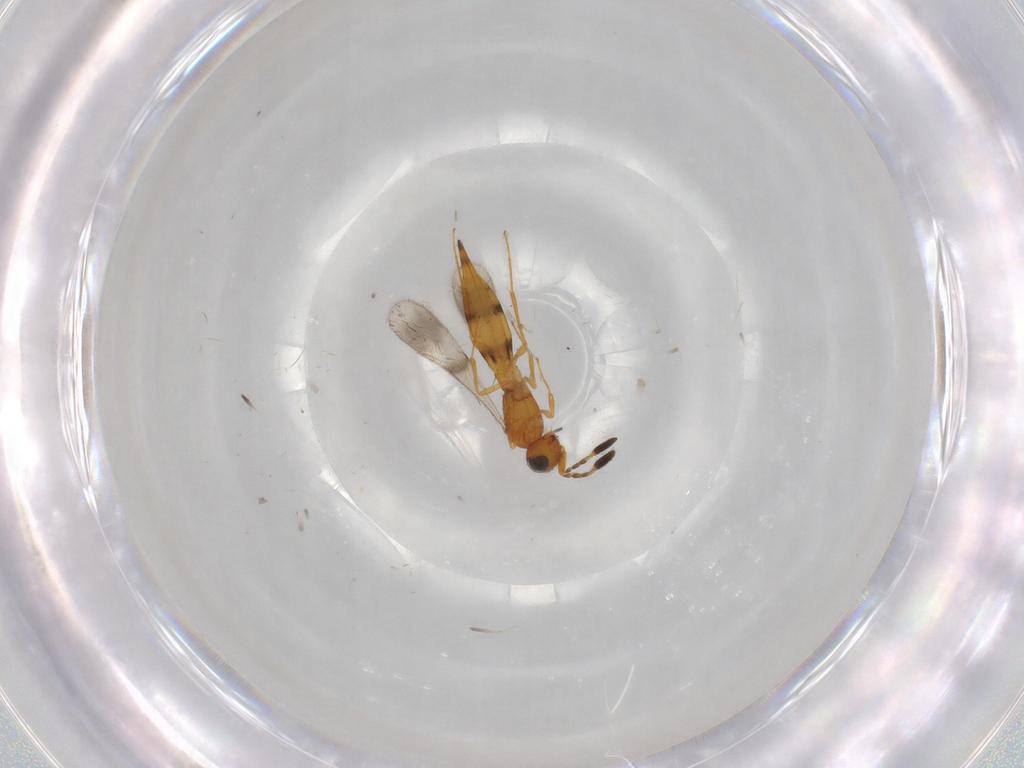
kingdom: Animalia
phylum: Arthropoda
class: Insecta
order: Hymenoptera
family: Scelionidae
